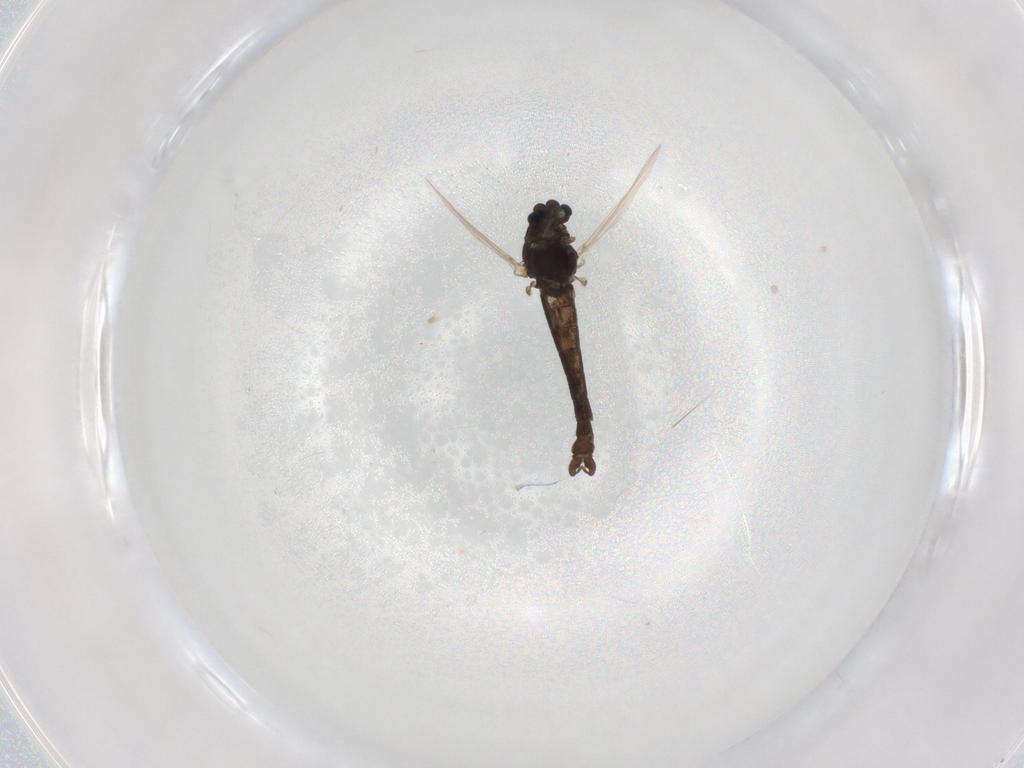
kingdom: Animalia
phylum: Arthropoda
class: Insecta
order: Diptera
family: Chironomidae
